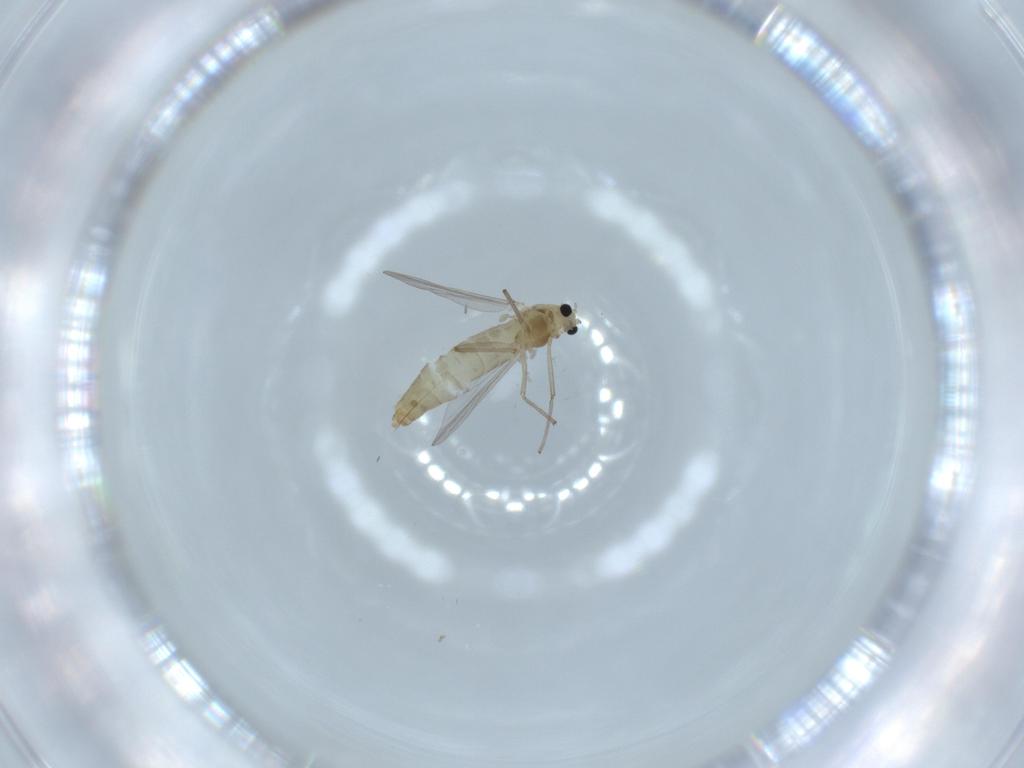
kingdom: Animalia
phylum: Arthropoda
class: Insecta
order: Diptera
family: Chironomidae
